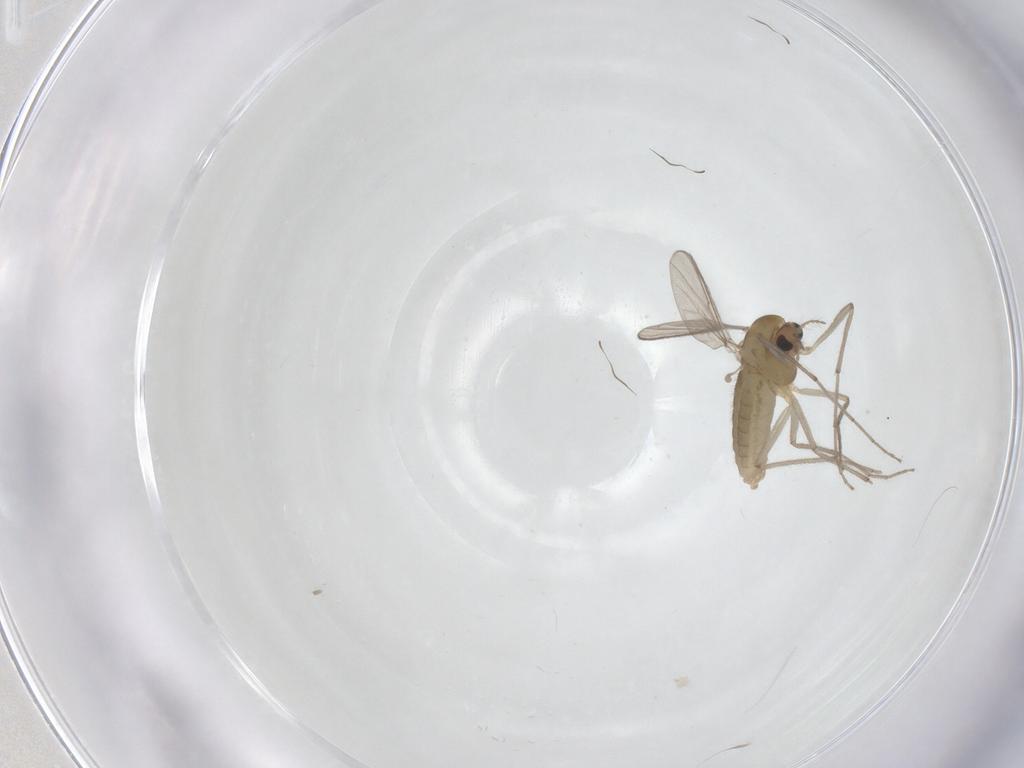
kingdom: Animalia
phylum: Arthropoda
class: Insecta
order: Diptera
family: Chironomidae
